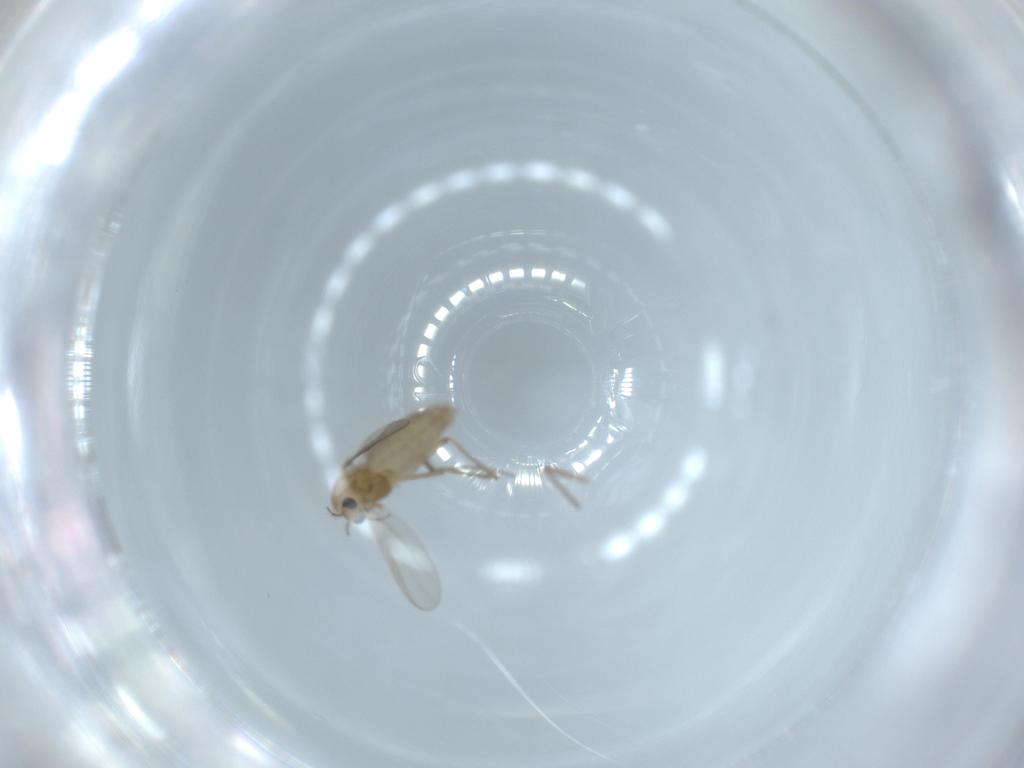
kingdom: Animalia
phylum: Arthropoda
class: Insecta
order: Diptera
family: Chironomidae
